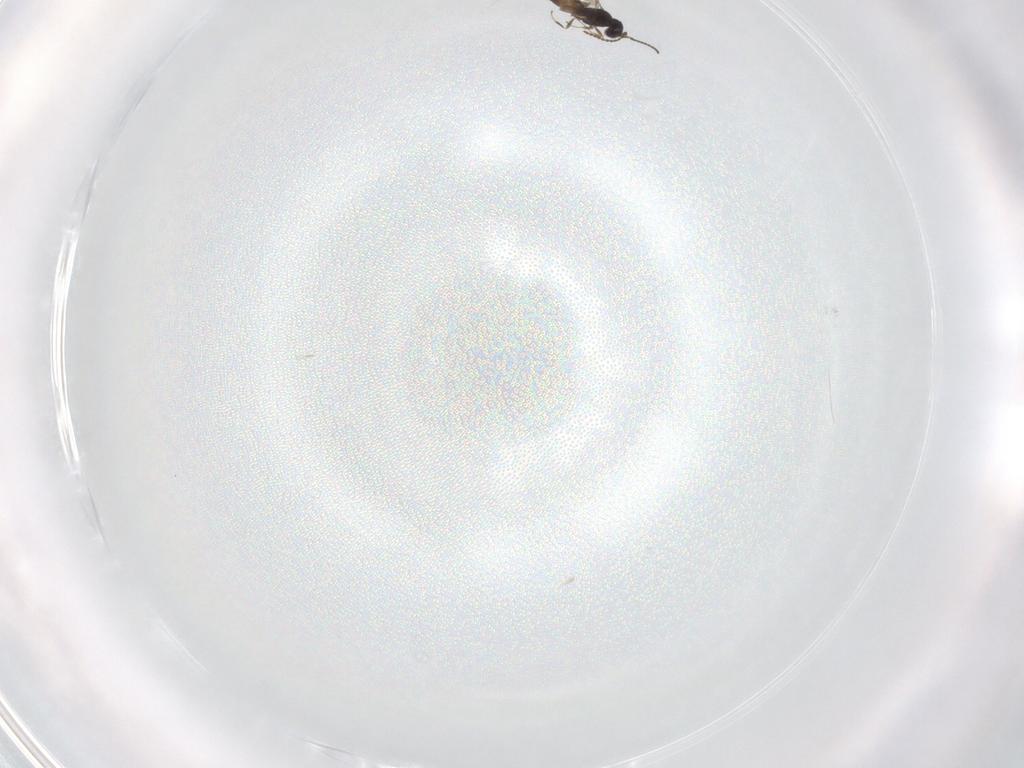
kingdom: Animalia
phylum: Arthropoda
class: Insecta
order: Hymenoptera
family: Scelionidae
